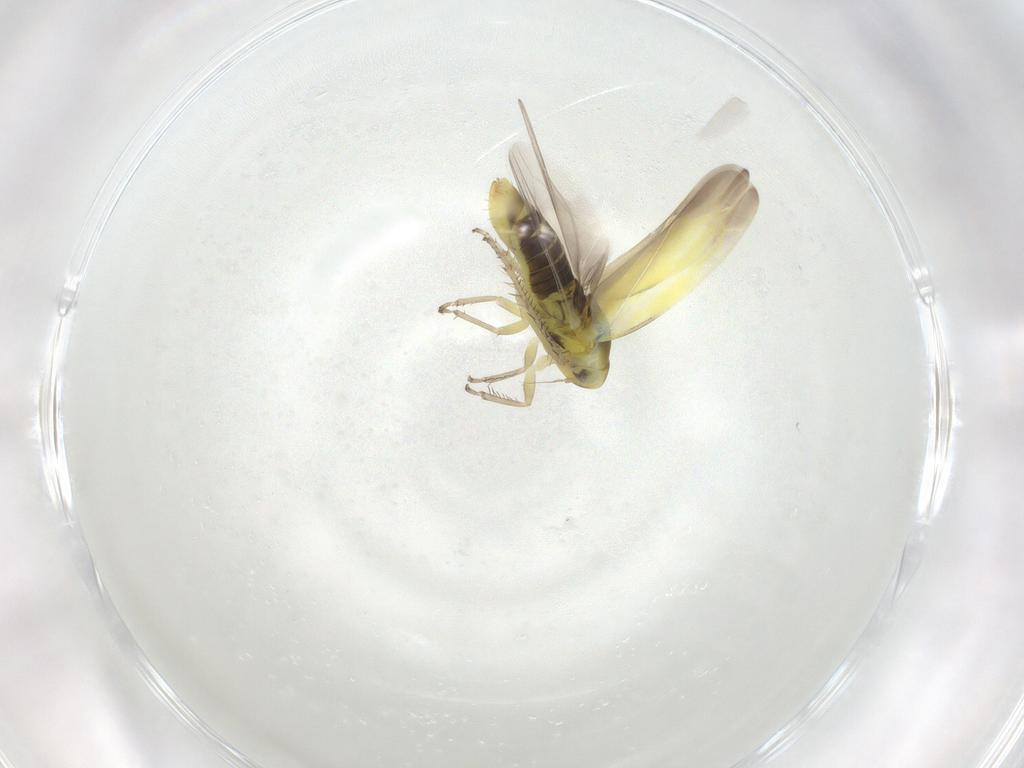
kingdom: Animalia
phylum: Arthropoda
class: Insecta
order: Hemiptera
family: Cicadellidae
